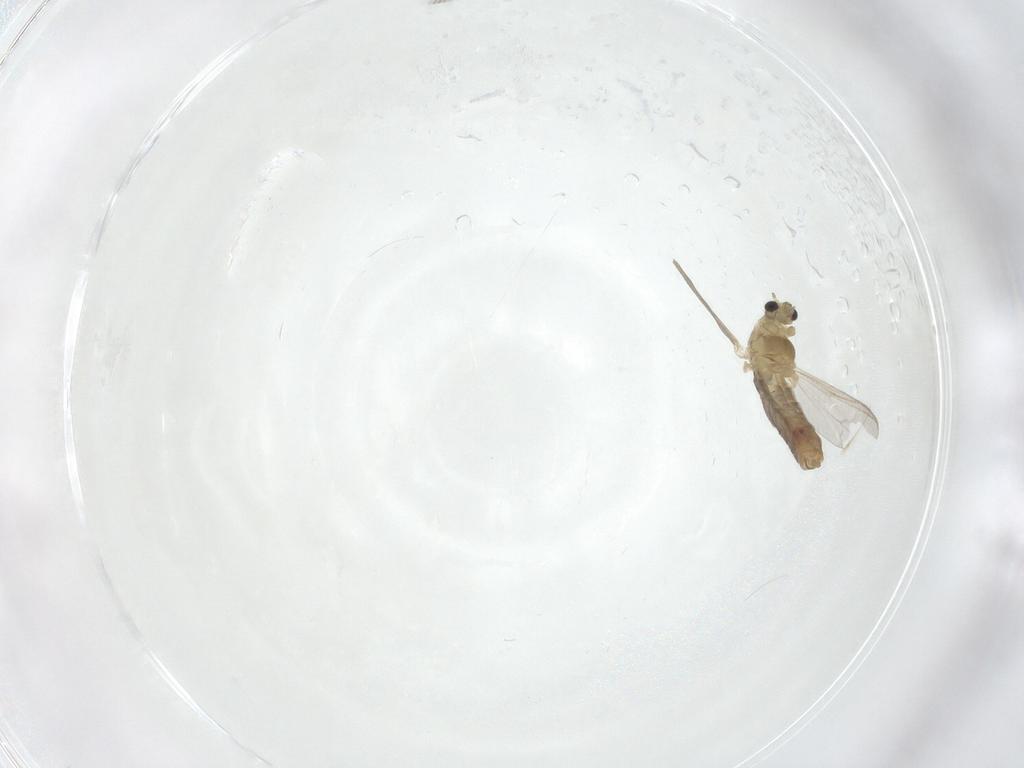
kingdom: Animalia
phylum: Arthropoda
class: Insecta
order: Diptera
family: Chironomidae
